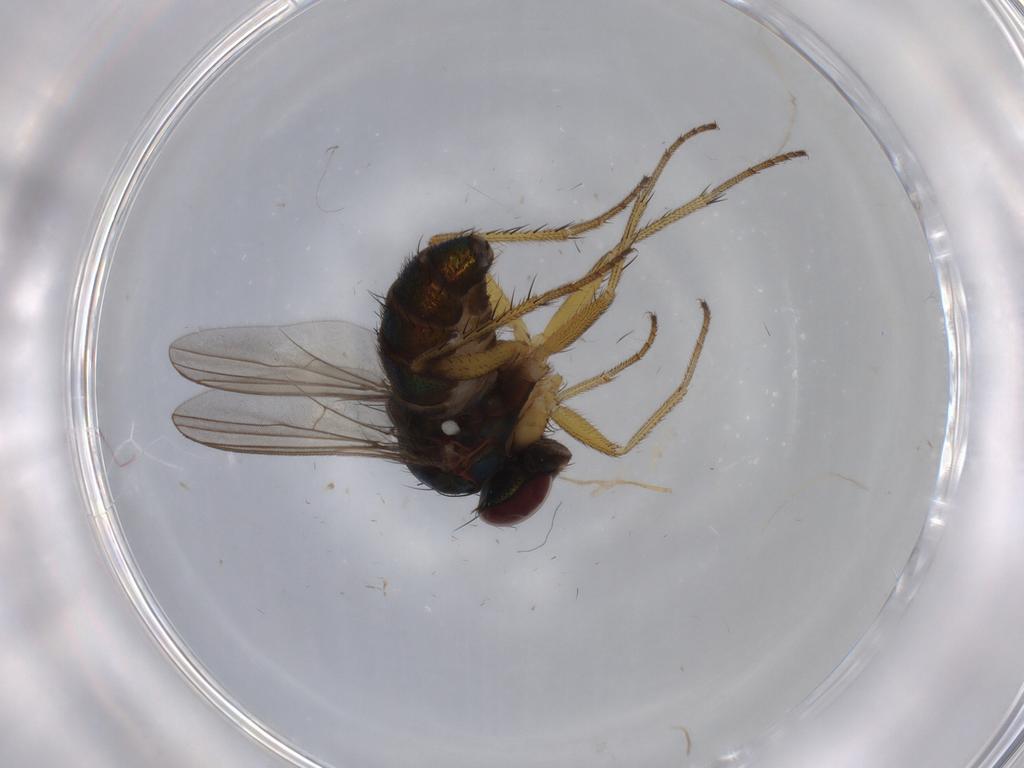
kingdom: Animalia
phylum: Arthropoda
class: Insecta
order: Diptera
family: Dolichopodidae
